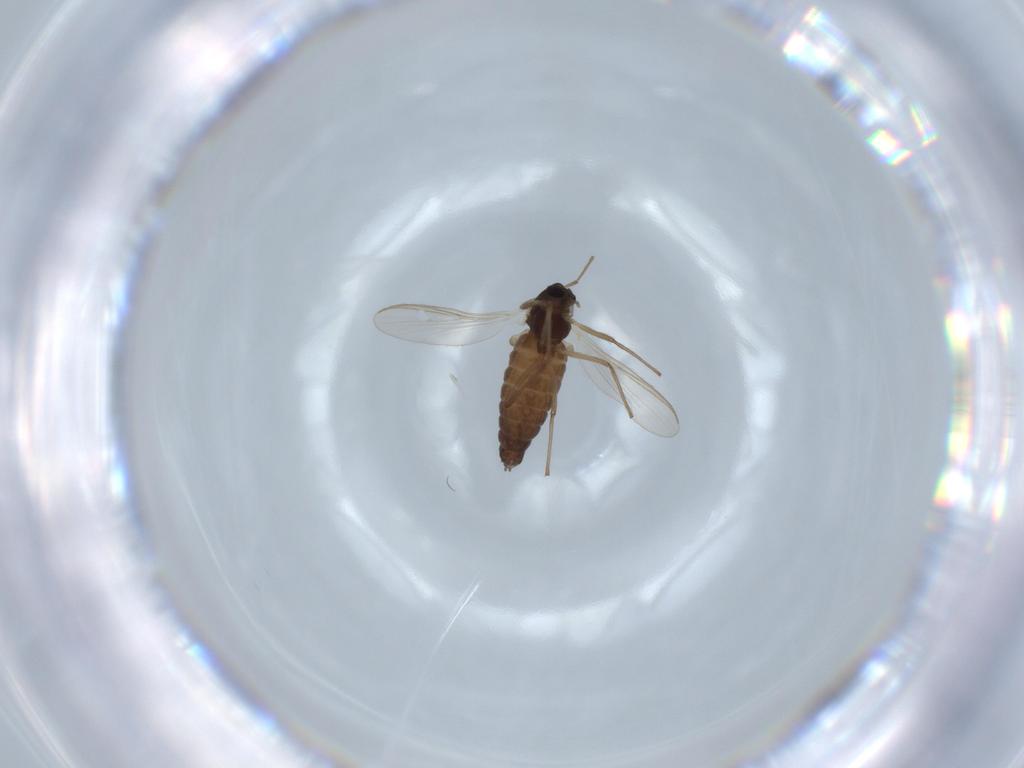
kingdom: Animalia
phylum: Arthropoda
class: Insecta
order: Diptera
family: Chironomidae
